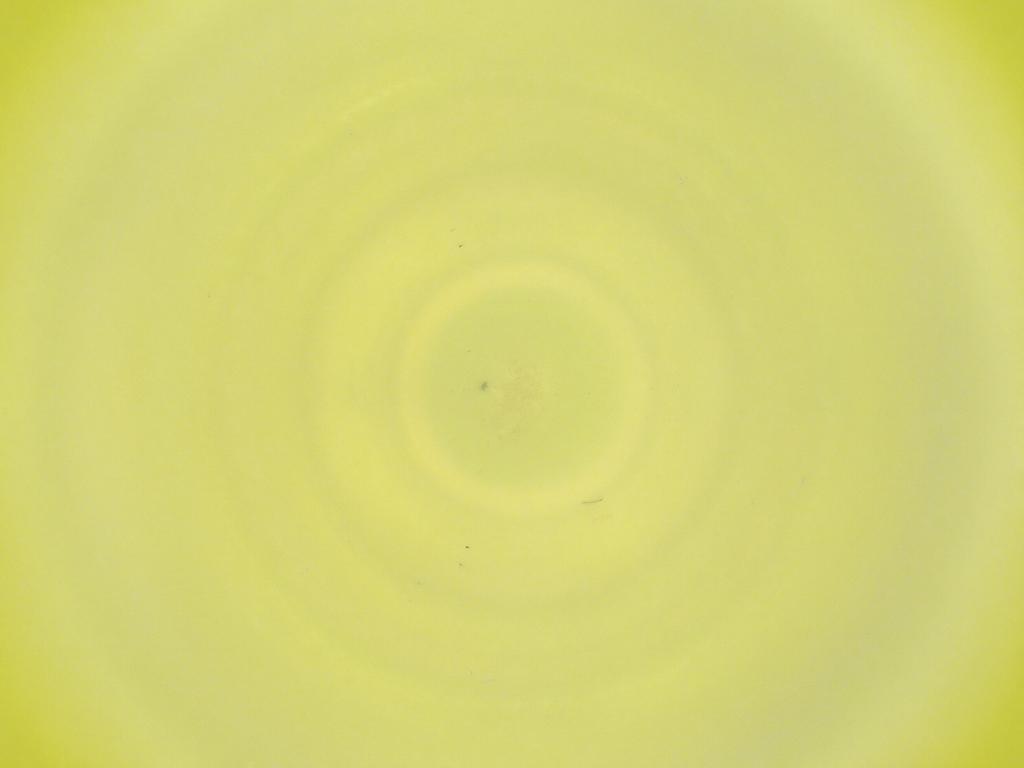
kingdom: Animalia
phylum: Arthropoda
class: Insecta
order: Diptera
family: Cecidomyiidae
